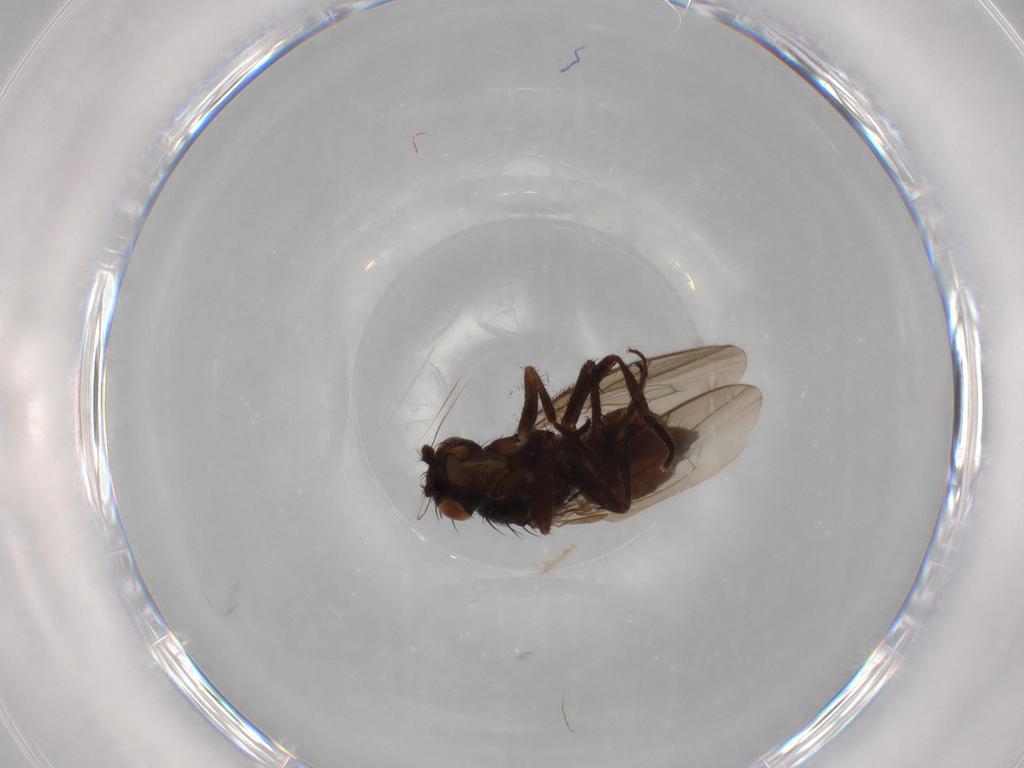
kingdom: Animalia
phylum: Arthropoda
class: Insecta
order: Diptera
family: Sphaeroceridae
